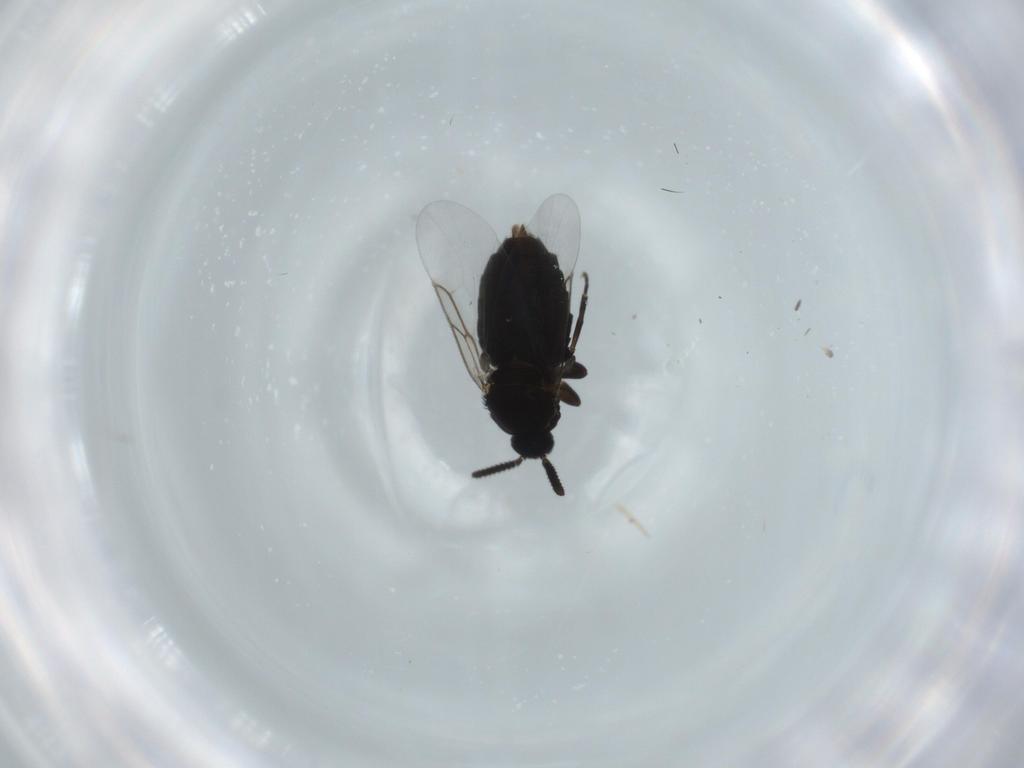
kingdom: Animalia
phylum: Arthropoda
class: Insecta
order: Diptera
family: Scatopsidae
